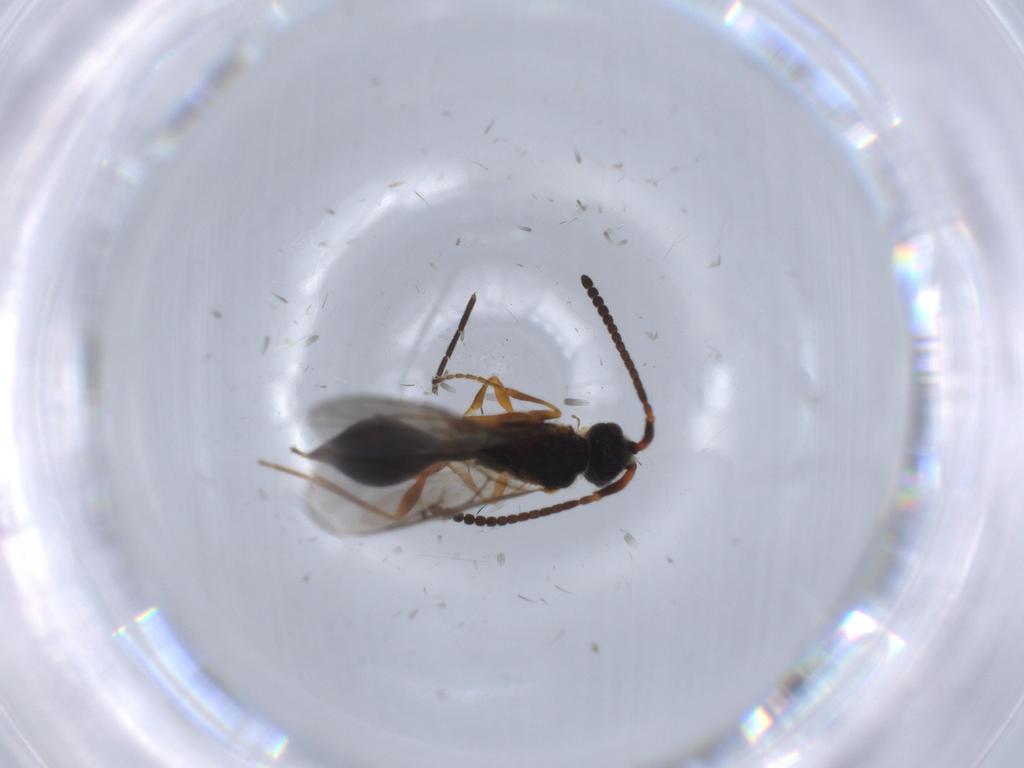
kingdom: Animalia
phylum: Arthropoda
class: Insecta
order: Hymenoptera
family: Diapriidae
